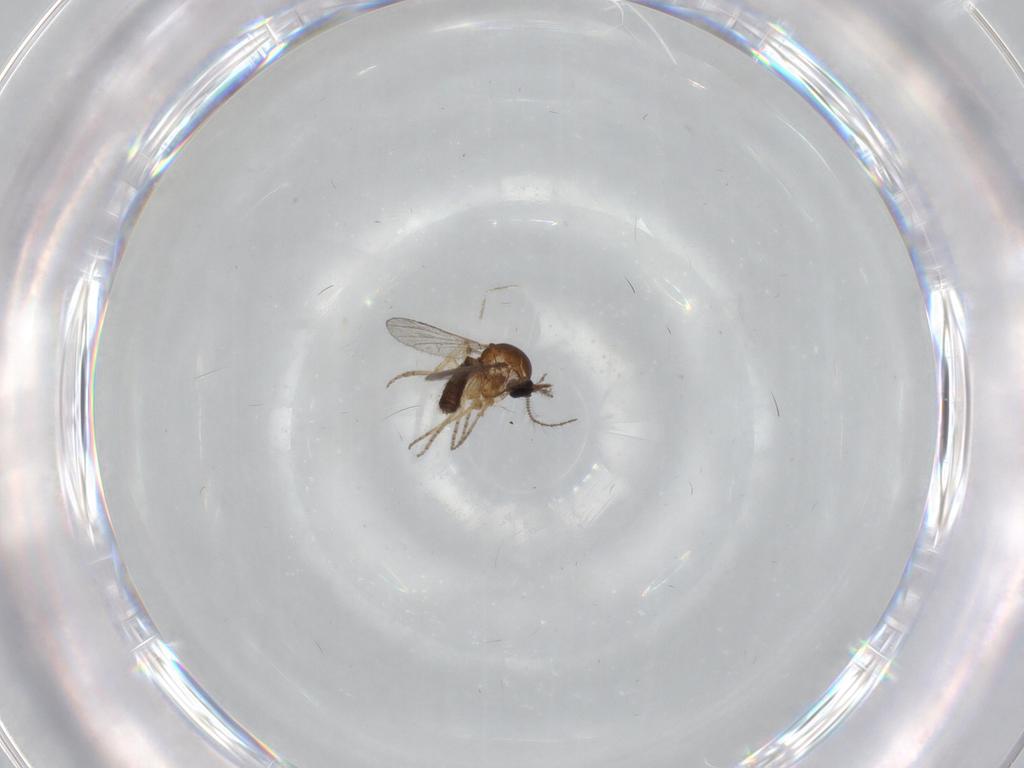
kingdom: Animalia
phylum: Arthropoda
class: Insecta
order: Diptera
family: Ceratopogonidae
